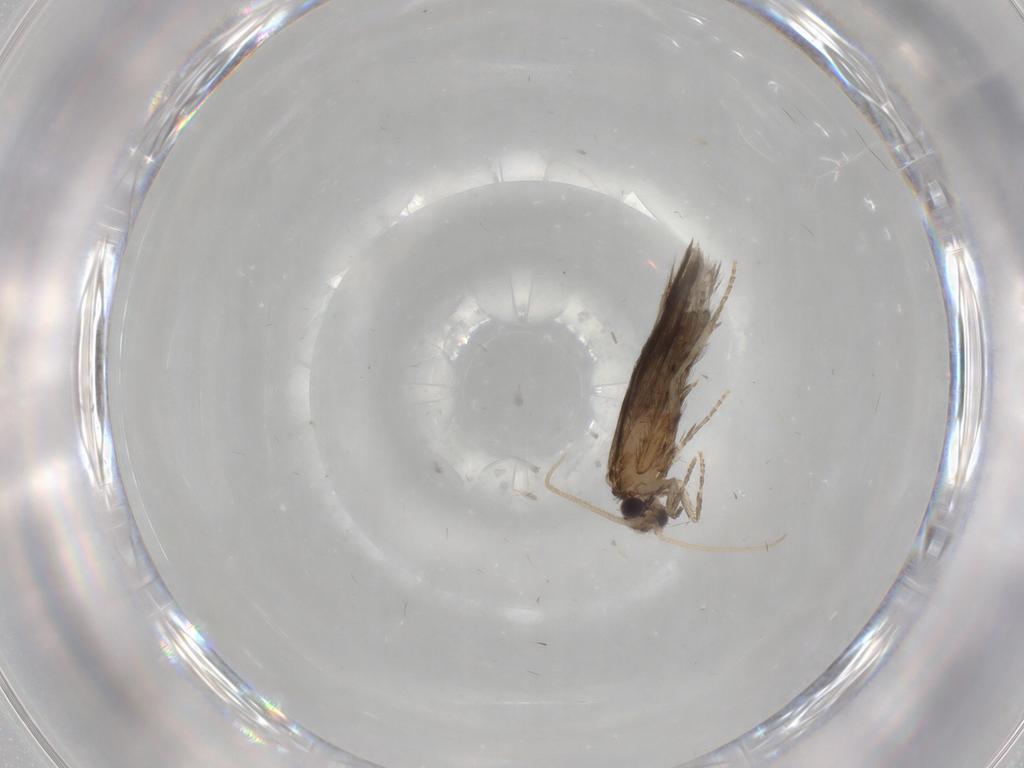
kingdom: Animalia
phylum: Arthropoda
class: Insecta
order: Trichoptera
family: Hydroptilidae
